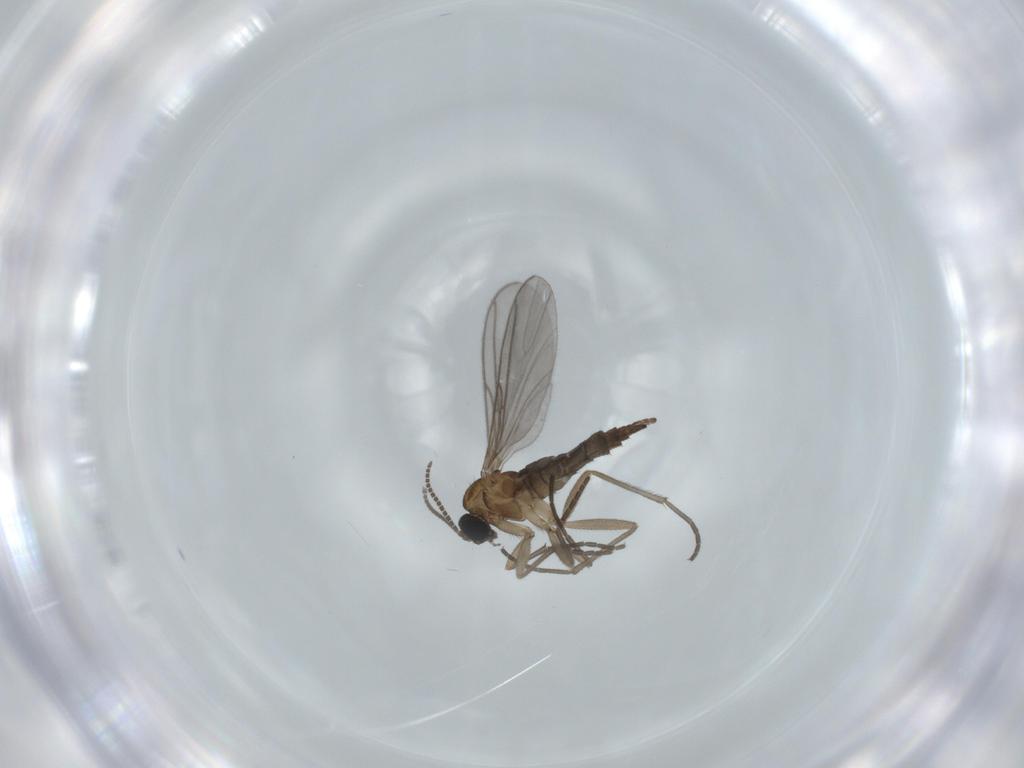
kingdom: Animalia
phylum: Arthropoda
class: Insecta
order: Diptera
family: Sciaridae
